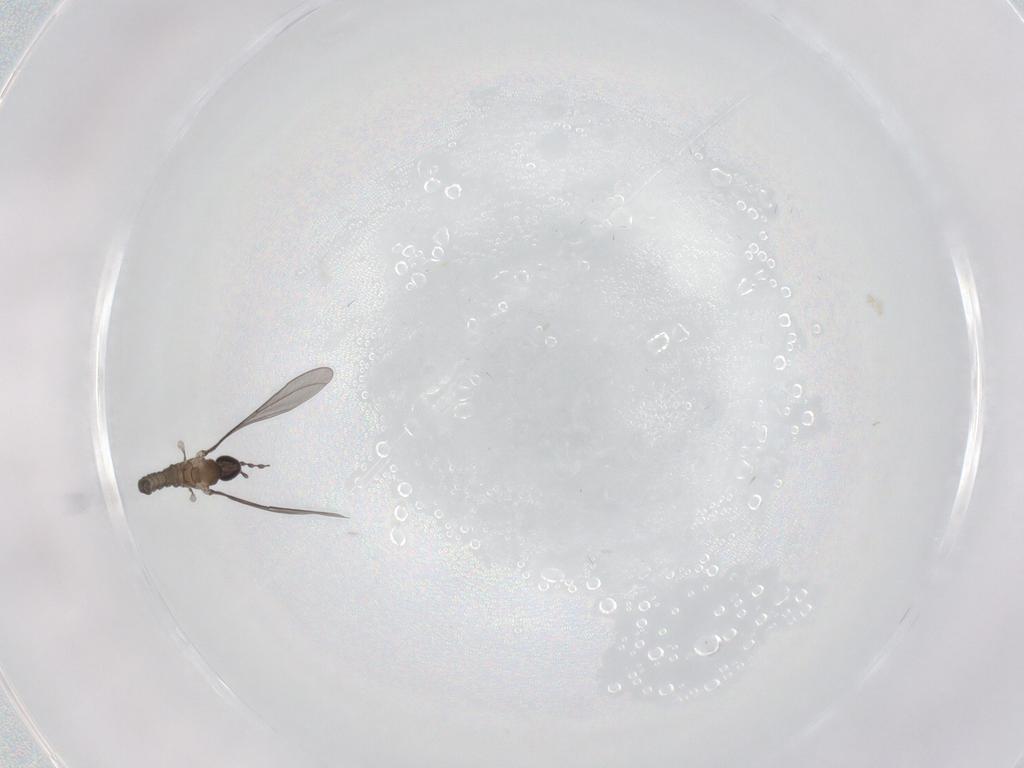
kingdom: Animalia
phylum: Arthropoda
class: Insecta
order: Diptera
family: Cecidomyiidae
